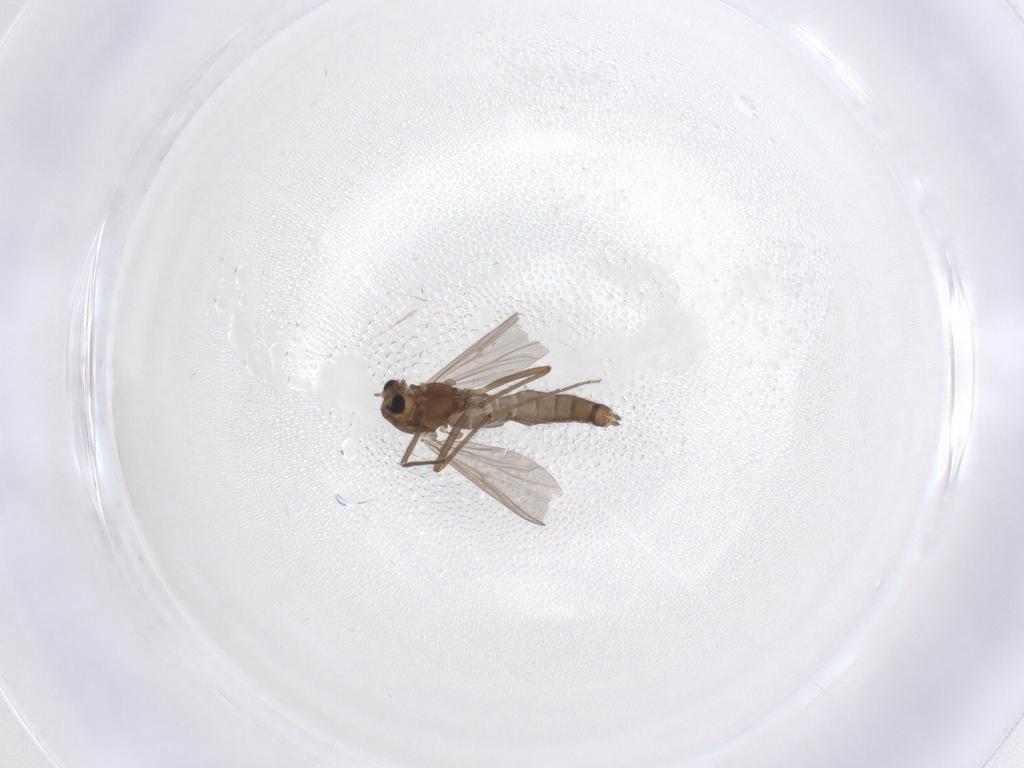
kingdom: Animalia
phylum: Arthropoda
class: Insecta
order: Diptera
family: Chironomidae
